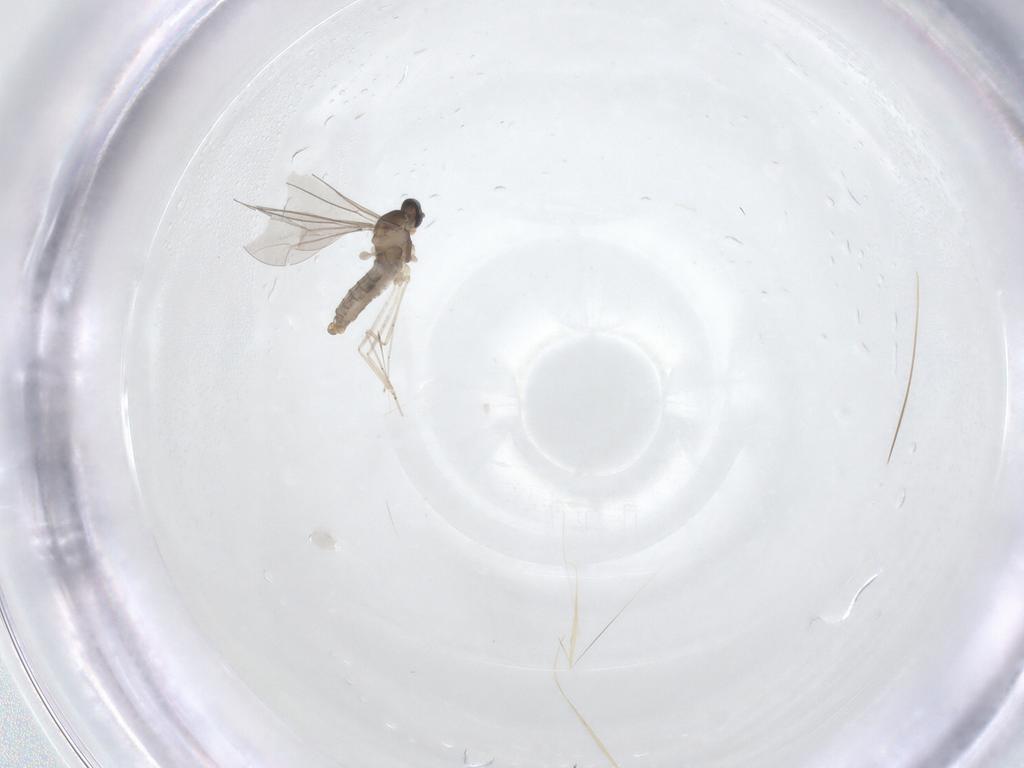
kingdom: Animalia
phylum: Arthropoda
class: Insecta
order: Diptera
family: Cecidomyiidae
